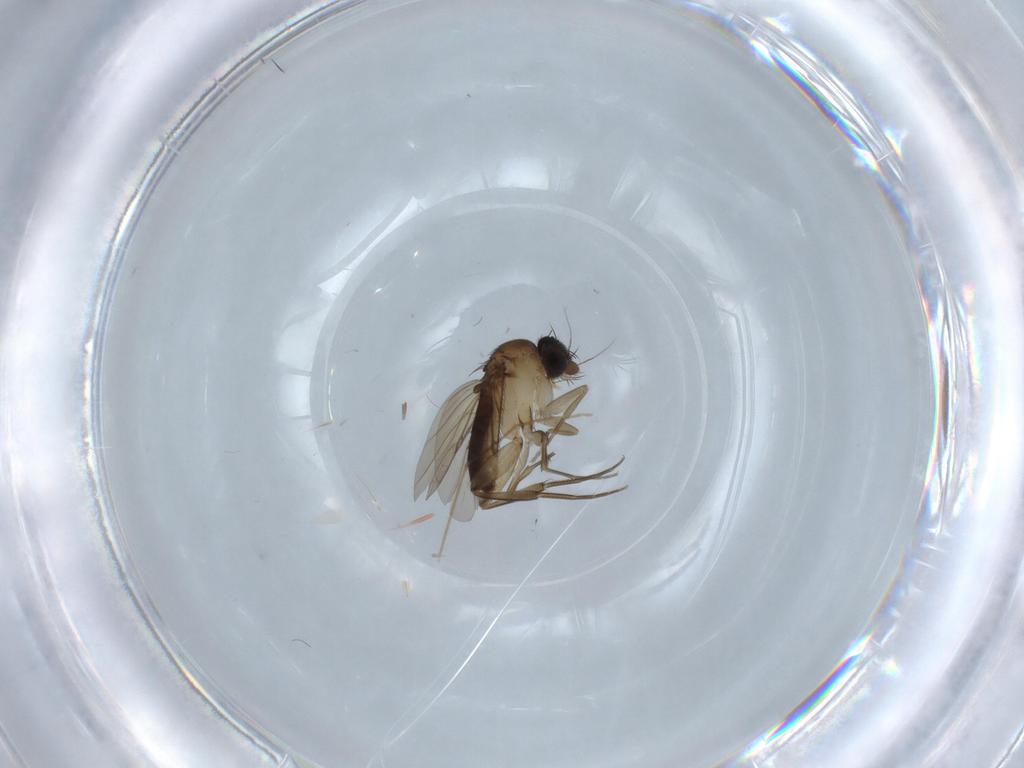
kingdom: Animalia
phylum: Arthropoda
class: Insecta
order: Diptera
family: Phoridae
